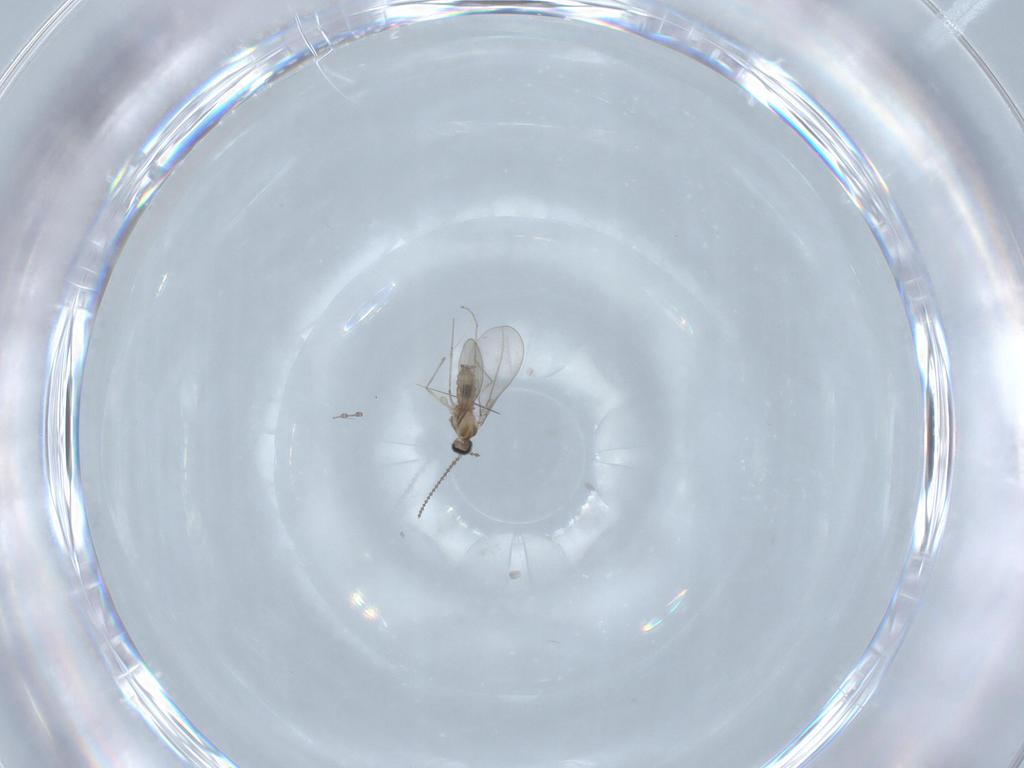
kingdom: Animalia
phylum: Arthropoda
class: Insecta
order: Diptera
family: Cecidomyiidae
